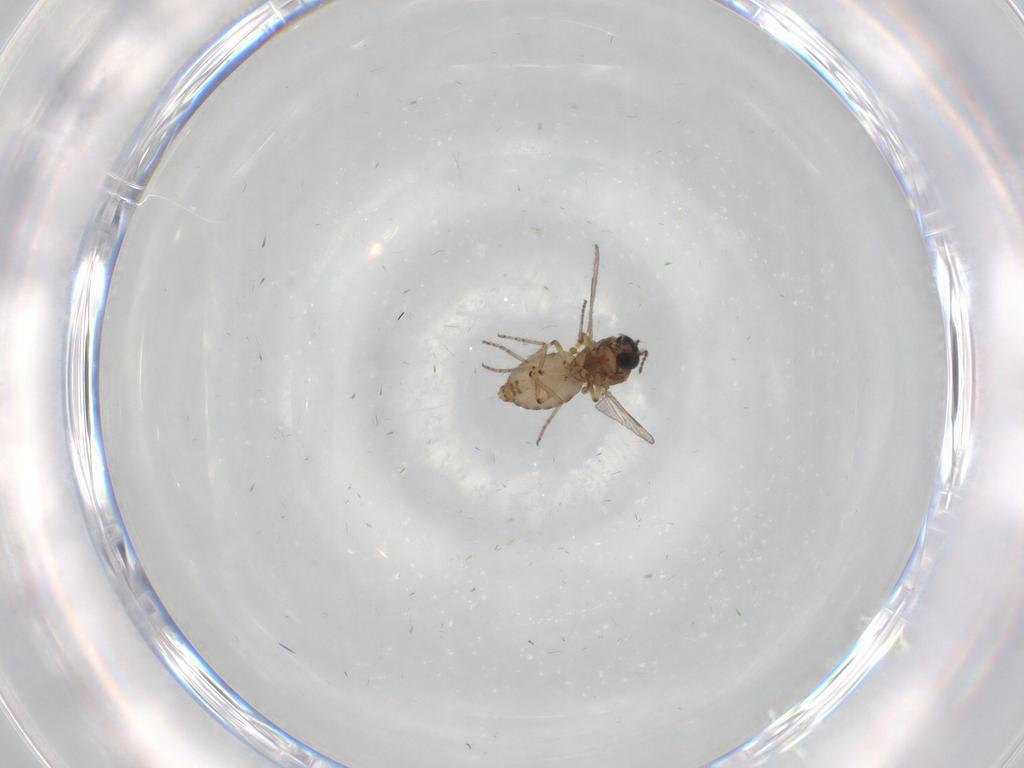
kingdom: Animalia
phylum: Arthropoda
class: Insecta
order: Diptera
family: Ceratopogonidae
